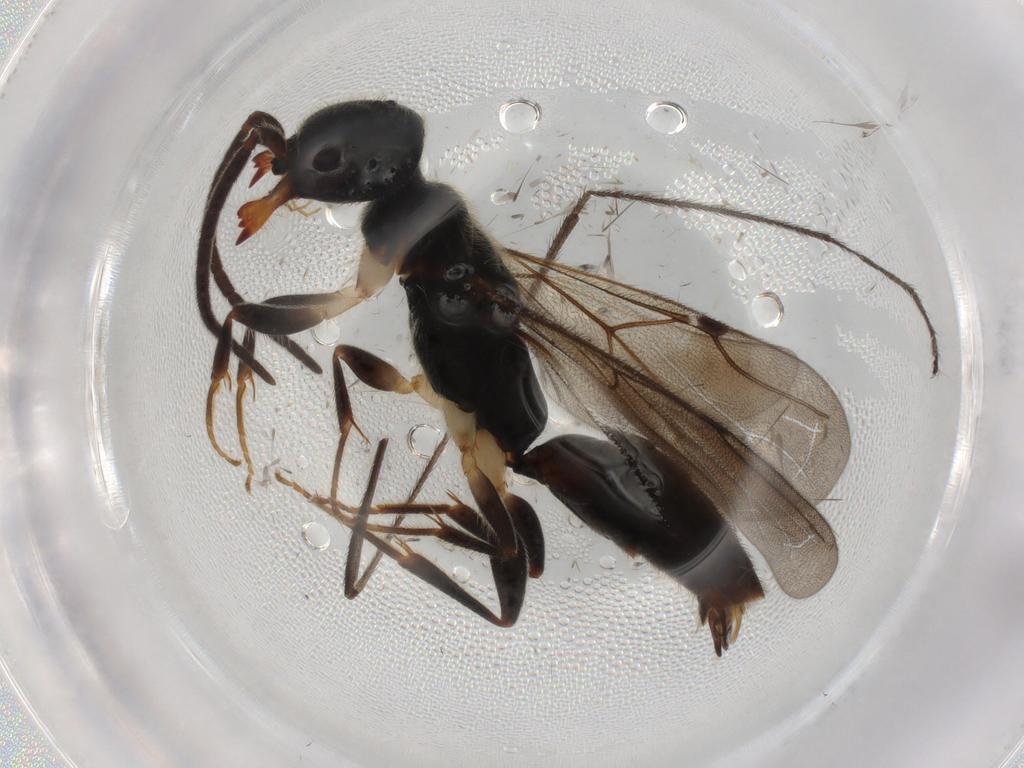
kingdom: Animalia
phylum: Arthropoda
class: Insecta
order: Hymenoptera
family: Bethylidae
